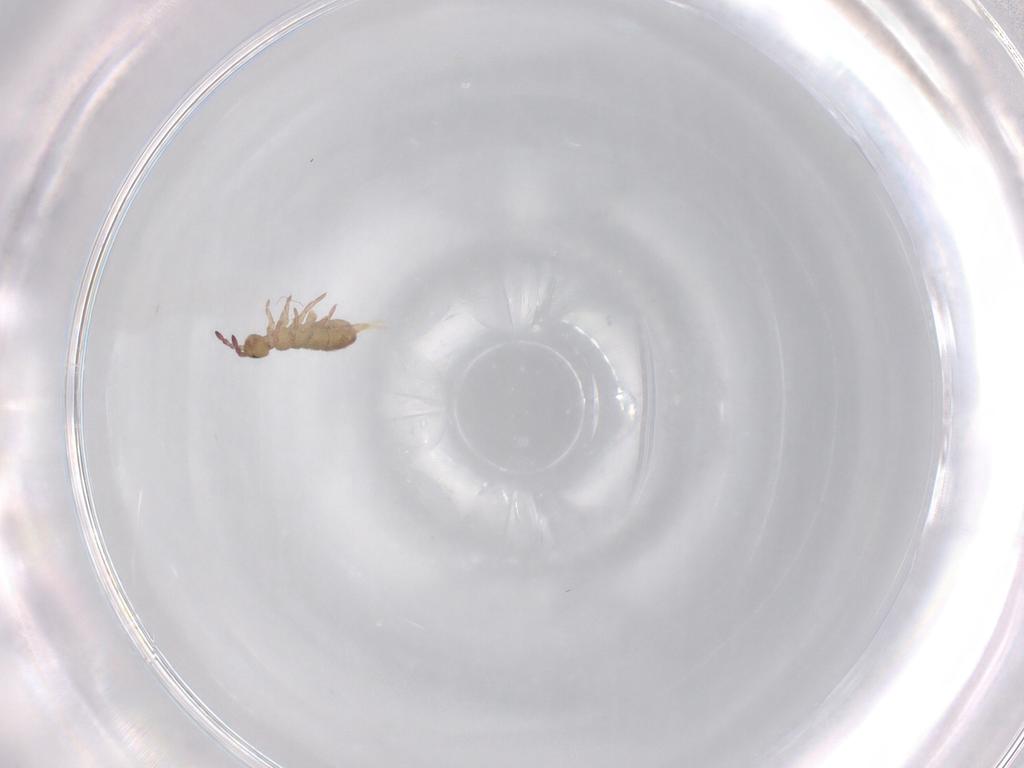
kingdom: Animalia
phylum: Arthropoda
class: Collembola
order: Entomobryomorpha
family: Isotomidae
